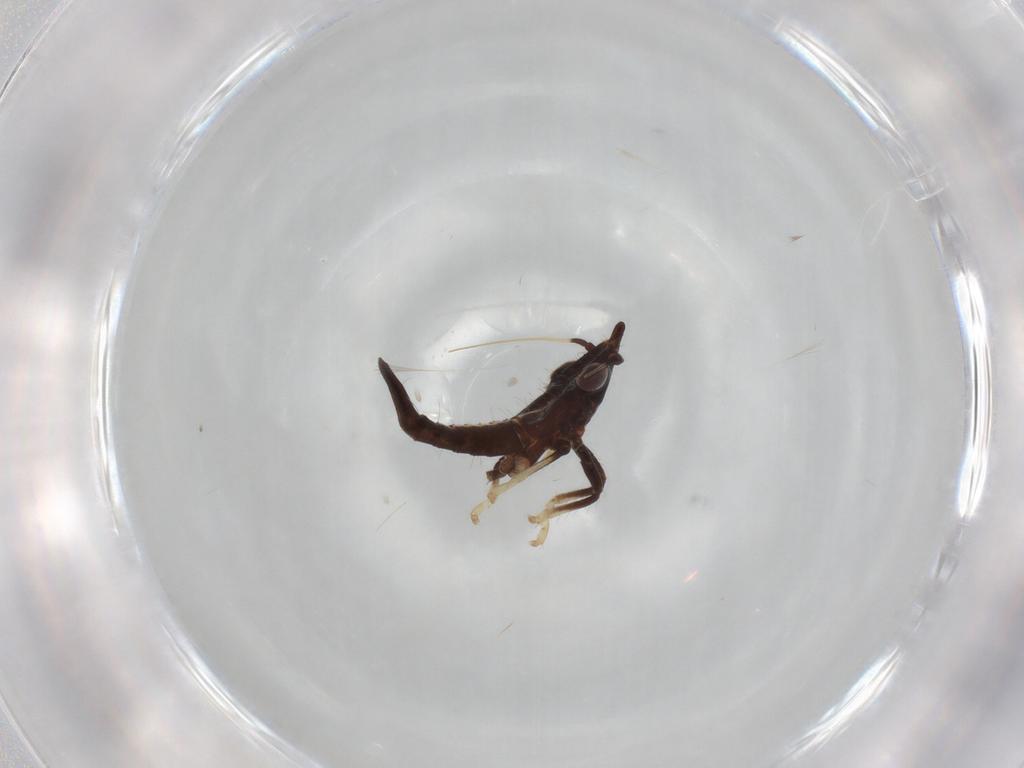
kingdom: Animalia
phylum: Arthropoda
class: Insecta
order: Hemiptera
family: Cicadellidae
